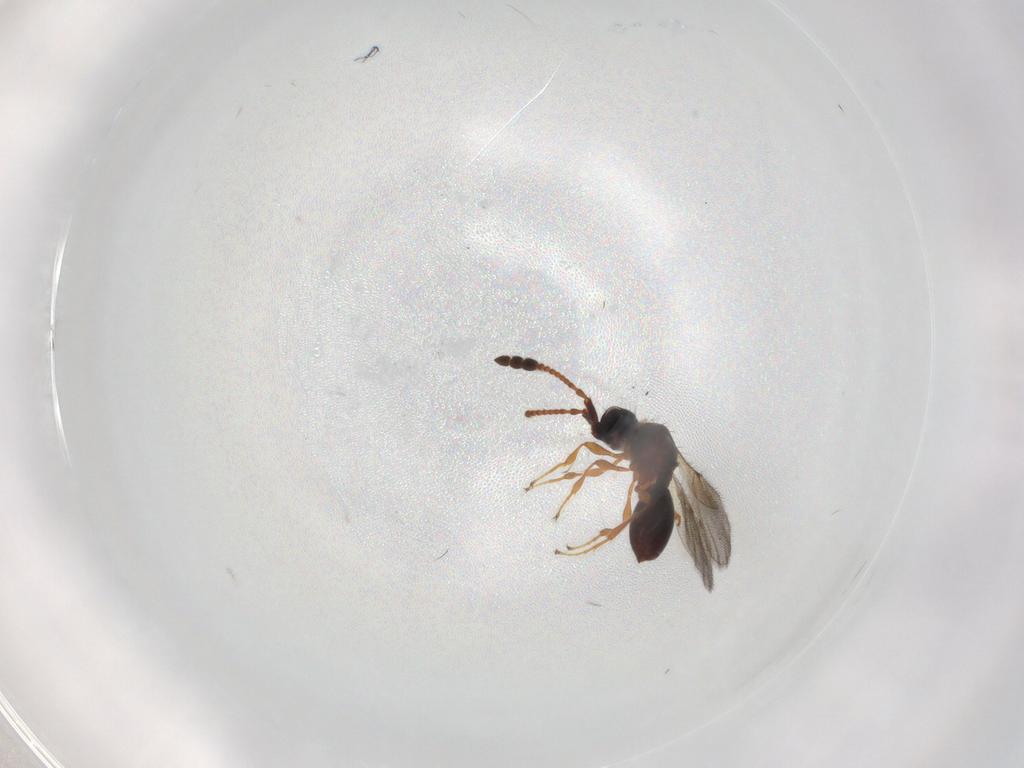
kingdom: Animalia
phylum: Arthropoda
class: Insecta
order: Hymenoptera
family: Diapriidae
